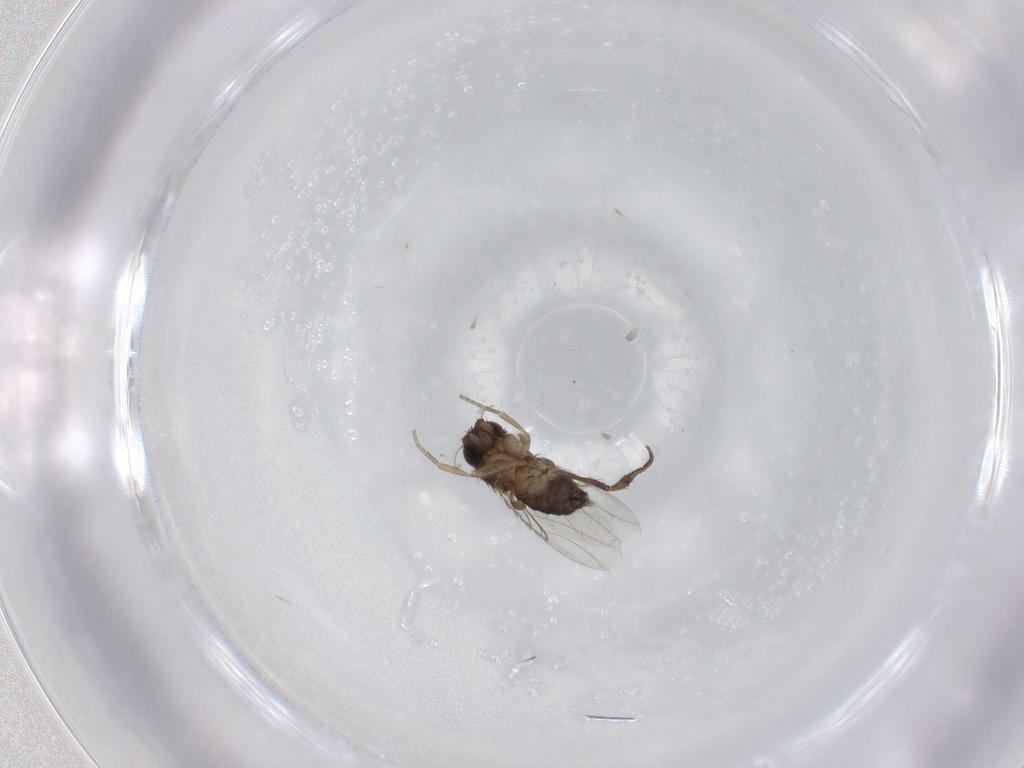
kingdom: Animalia
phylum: Arthropoda
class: Insecta
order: Diptera
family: Phoridae
